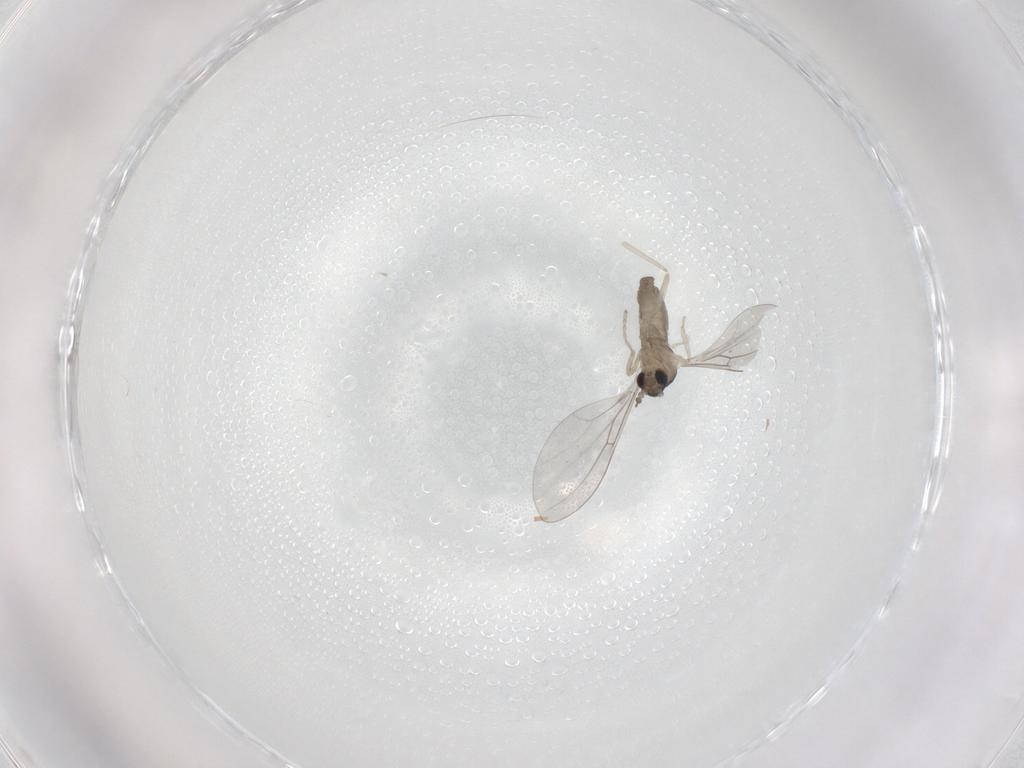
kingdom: Animalia
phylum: Arthropoda
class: Insecta
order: Diptera
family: Cecidomyiidae
